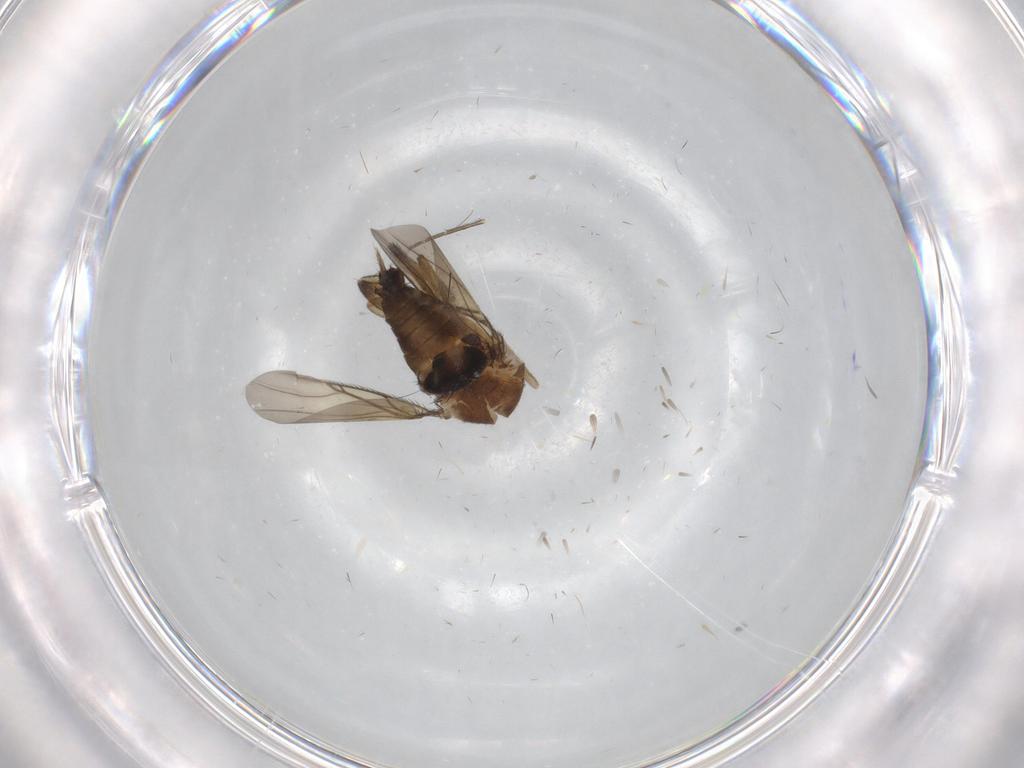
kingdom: Animalia
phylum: Arthropoda
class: Insecta
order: Diptera
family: Phoridae
